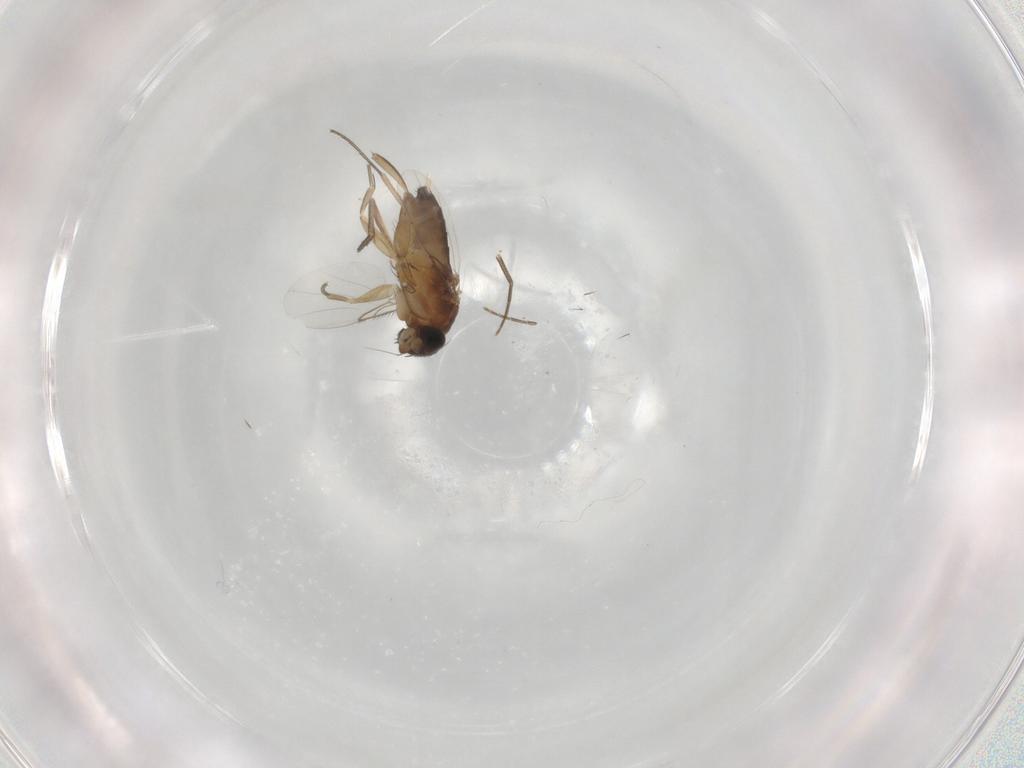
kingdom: Animalia
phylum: Arthropoda
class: Insecta
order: Diptera
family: Phoridae
